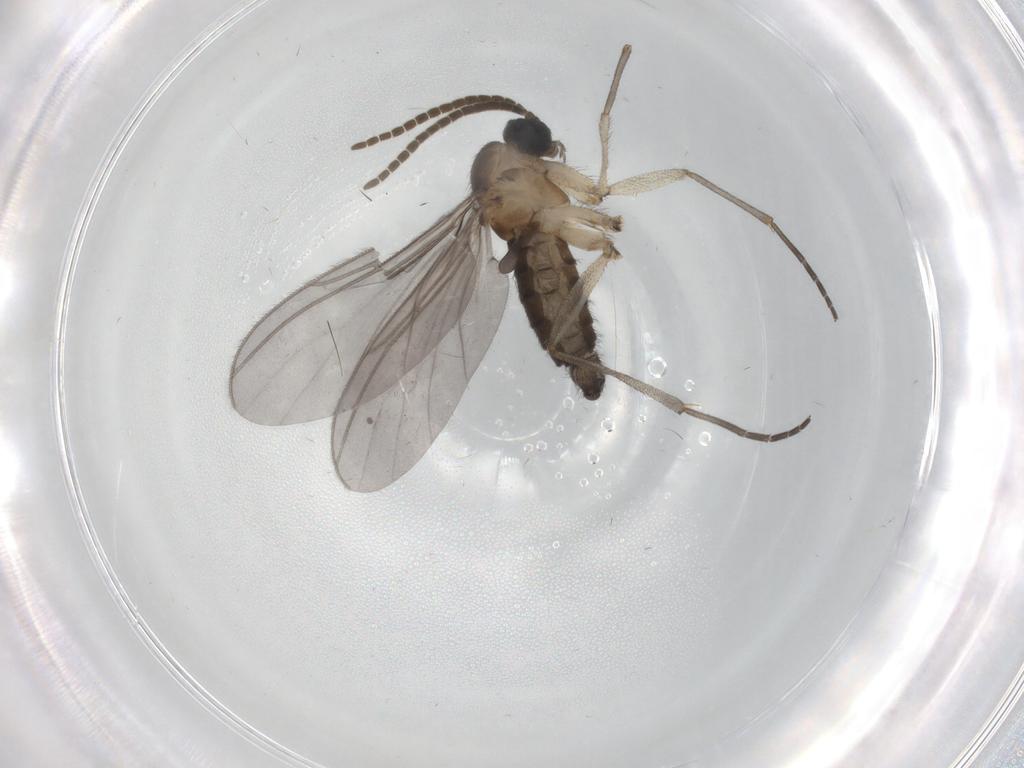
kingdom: Animalia
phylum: Arthropoda
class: Insecta
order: Diptera
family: Cecidomyiidae
